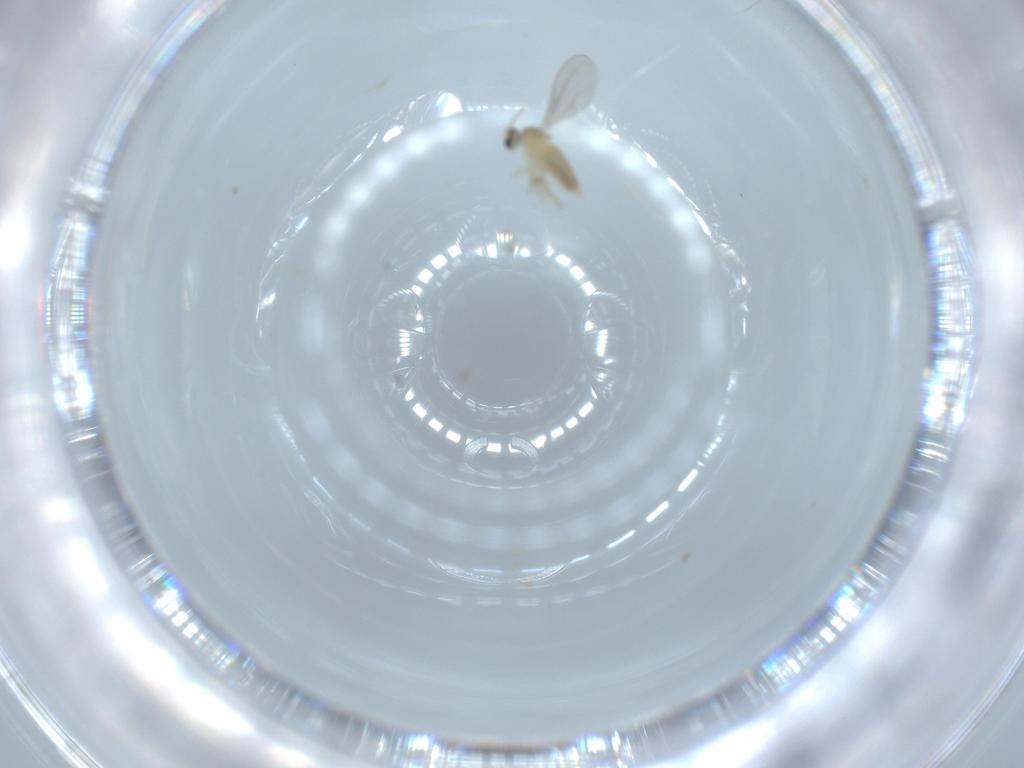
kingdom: Animalia
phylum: Arthropoda
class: Insecta
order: Diptera
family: Cecidomyiidae
